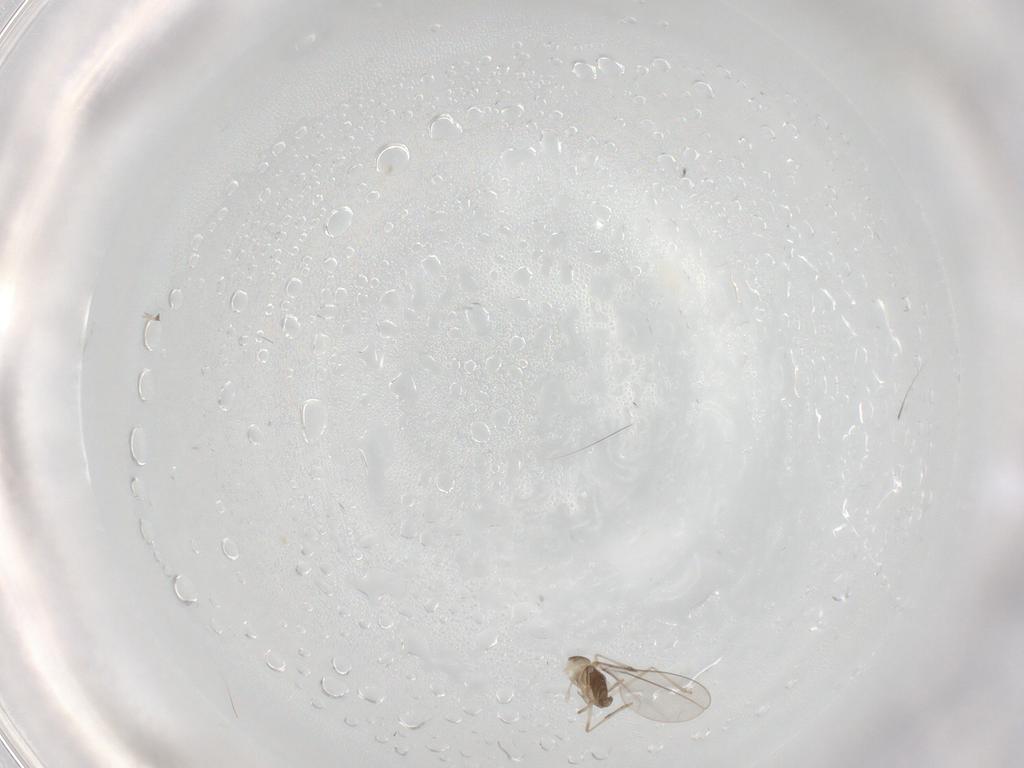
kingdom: Animalia
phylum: Arthropoda
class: Insecta
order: Diptera
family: Phoridae
